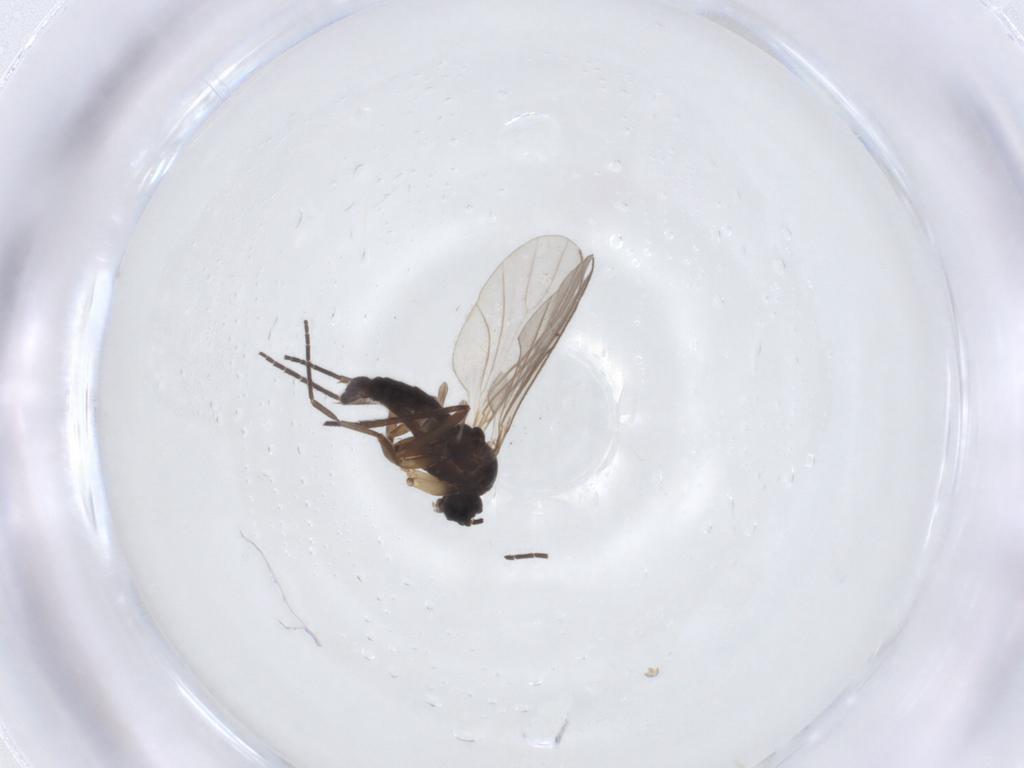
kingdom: Animalia
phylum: Arthropoda
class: Insecta
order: Diptera
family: Sciaridae
